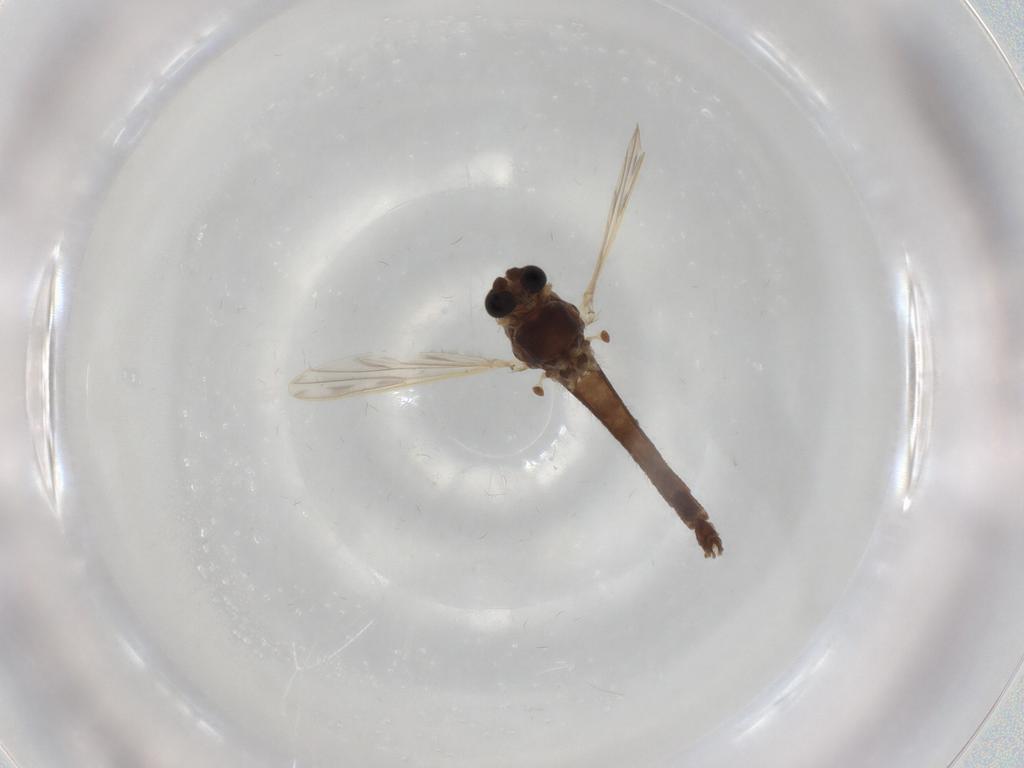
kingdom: Animalia
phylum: Arthropoda
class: Insecta
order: Diptera
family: Chironomidae
